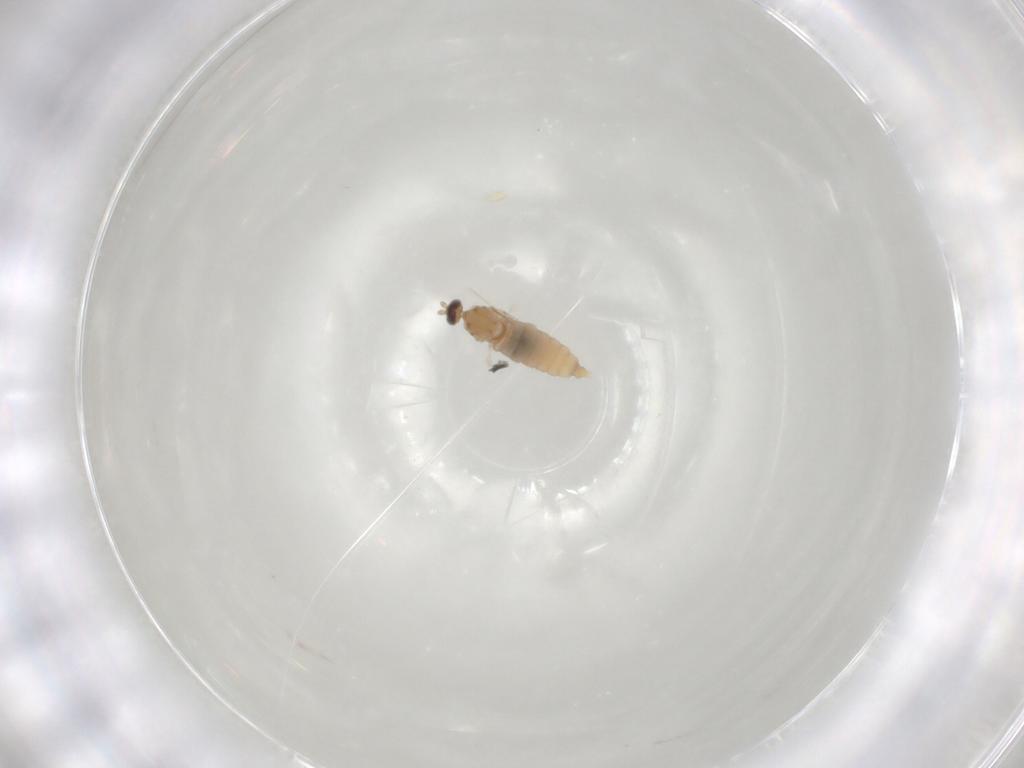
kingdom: Animalia
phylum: Arthropoda
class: Insecta
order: Diptera
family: Cecidomyiidae
